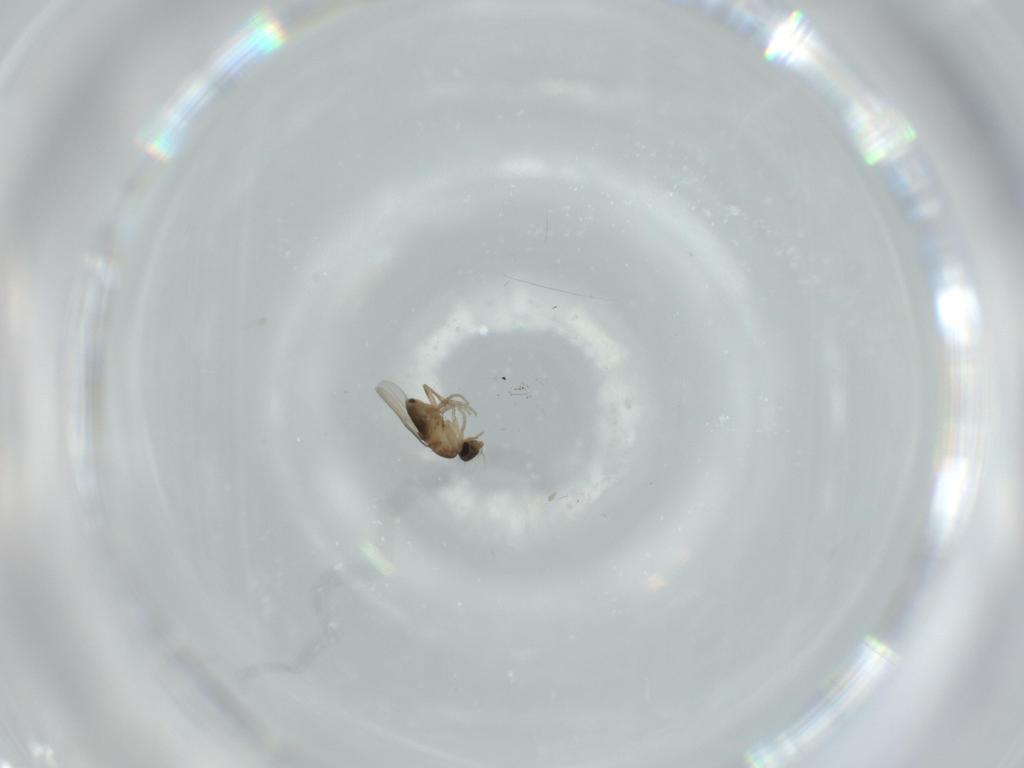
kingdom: Animalia
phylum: Arthropoda
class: Insecta
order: Diptera
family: Phoridae
